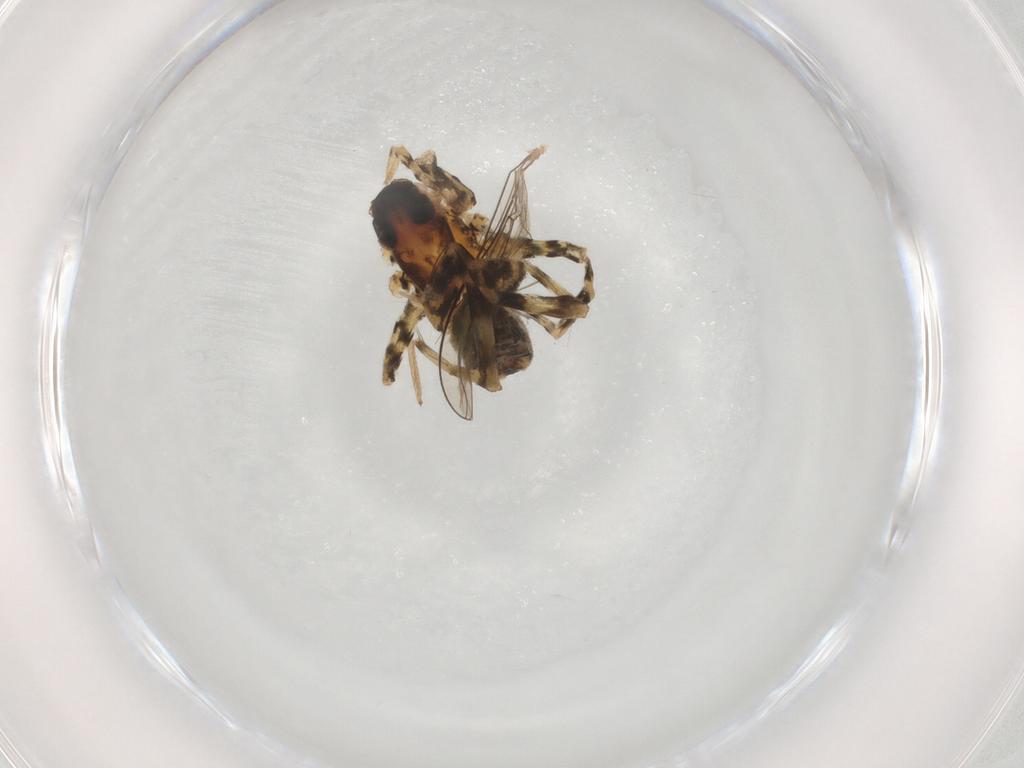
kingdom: Animalia
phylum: Arthropoda
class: Arachnida
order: Araneae
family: Lycosidae
